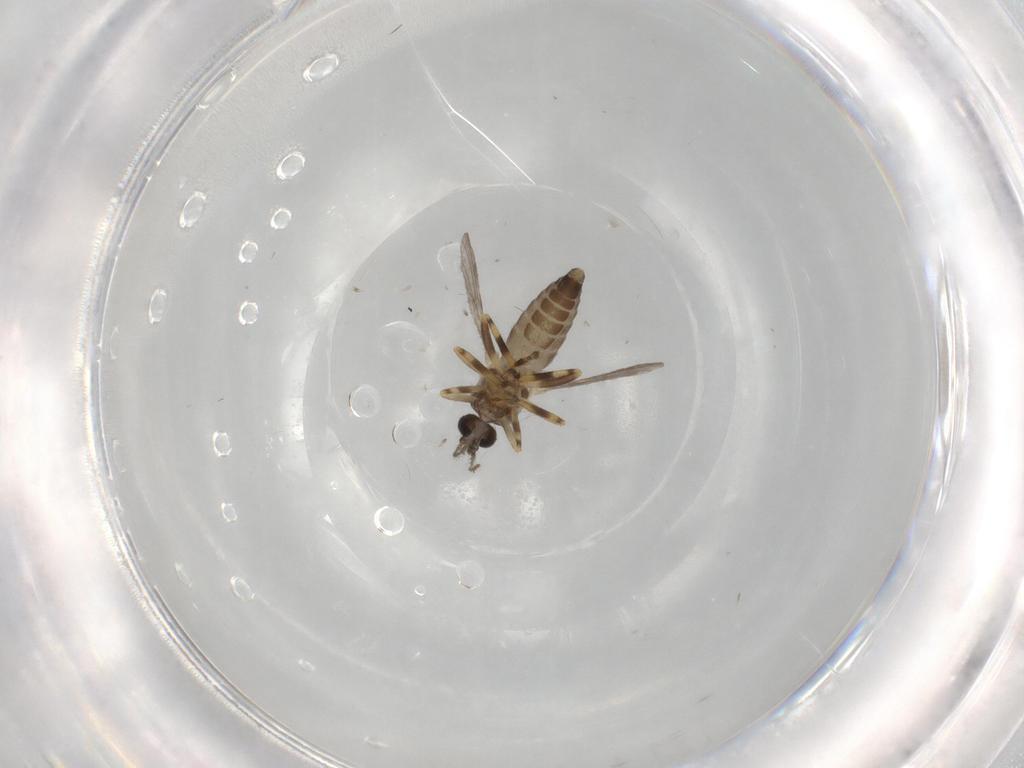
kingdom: Animalia
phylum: Arthropoda
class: Insecta
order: Diptera
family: Ceratopogonidae
